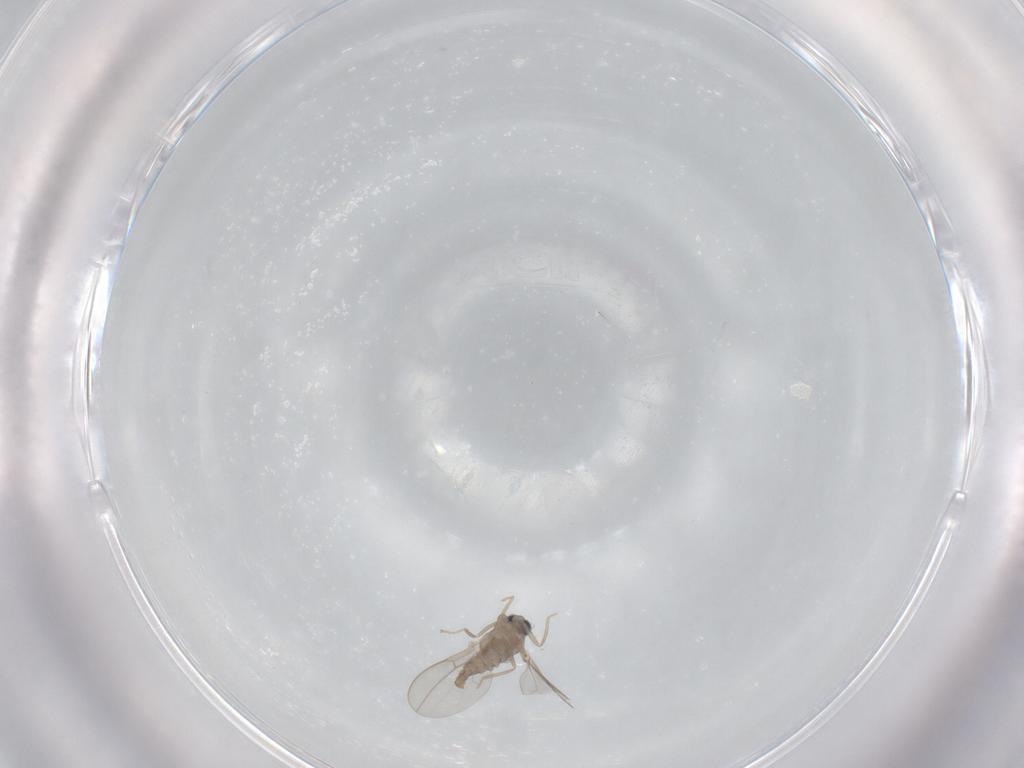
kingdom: Animalia
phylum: Arthropoda
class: Insecta
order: Diptera
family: Cecidomyiidae
